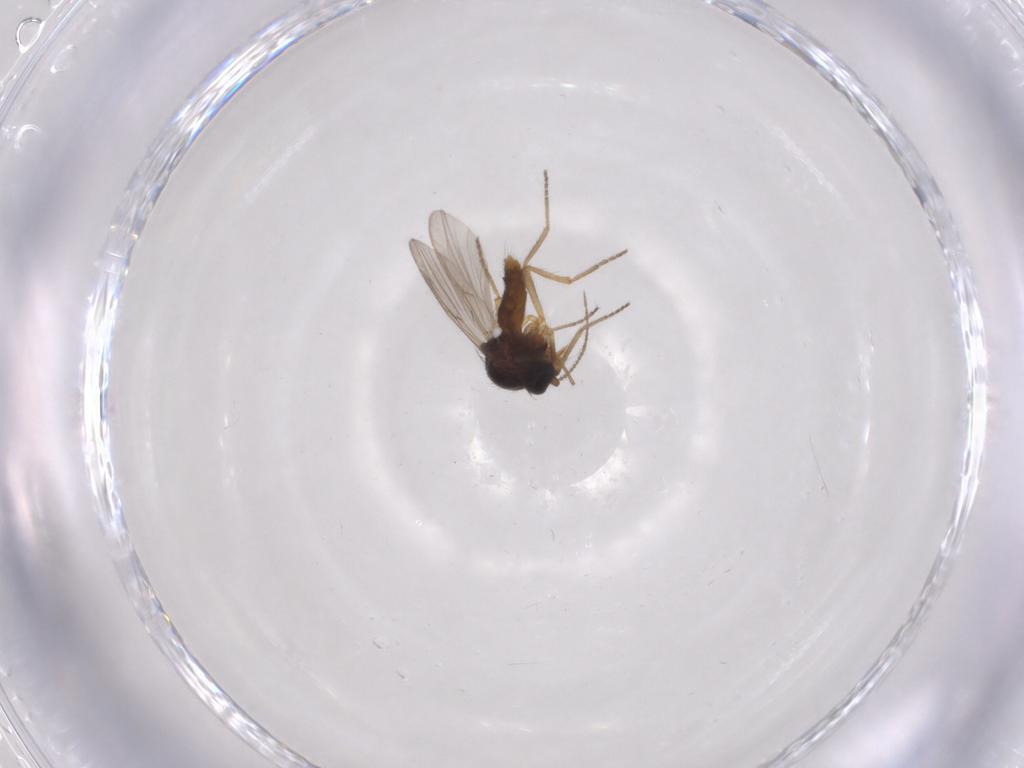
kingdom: Animalia
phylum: Arthropoda
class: Insecta
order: Diptera
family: Ceratopogonidae
